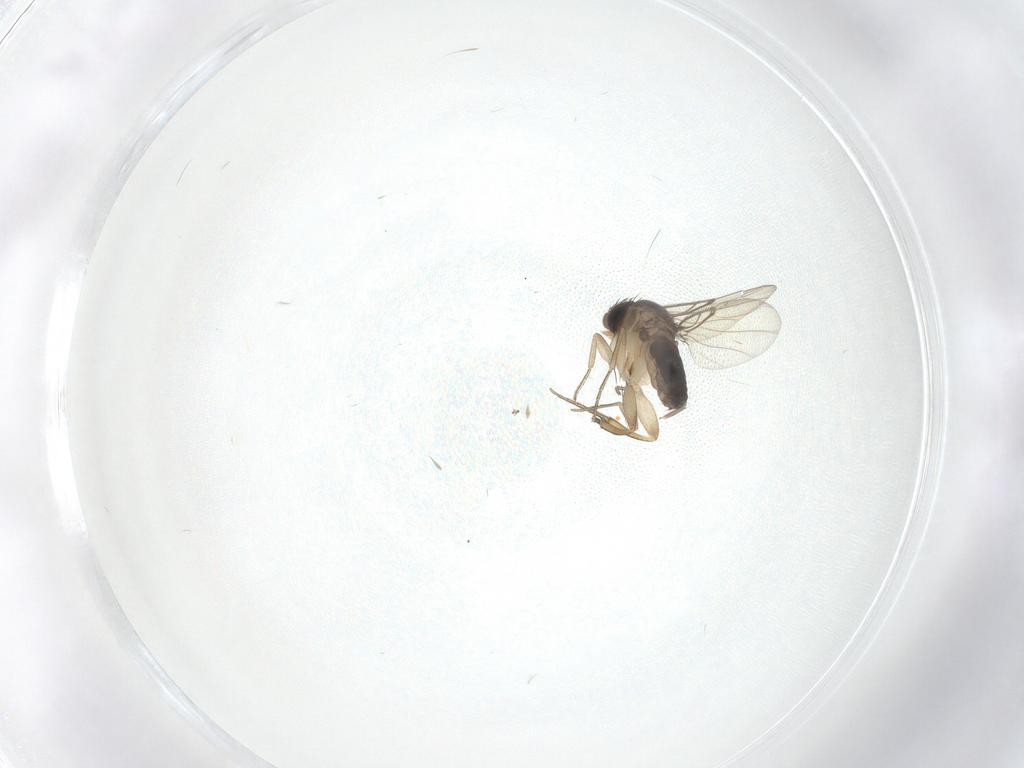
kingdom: Animalia
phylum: Arthropoda
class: Insecta
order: Diptera
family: Phoridae
